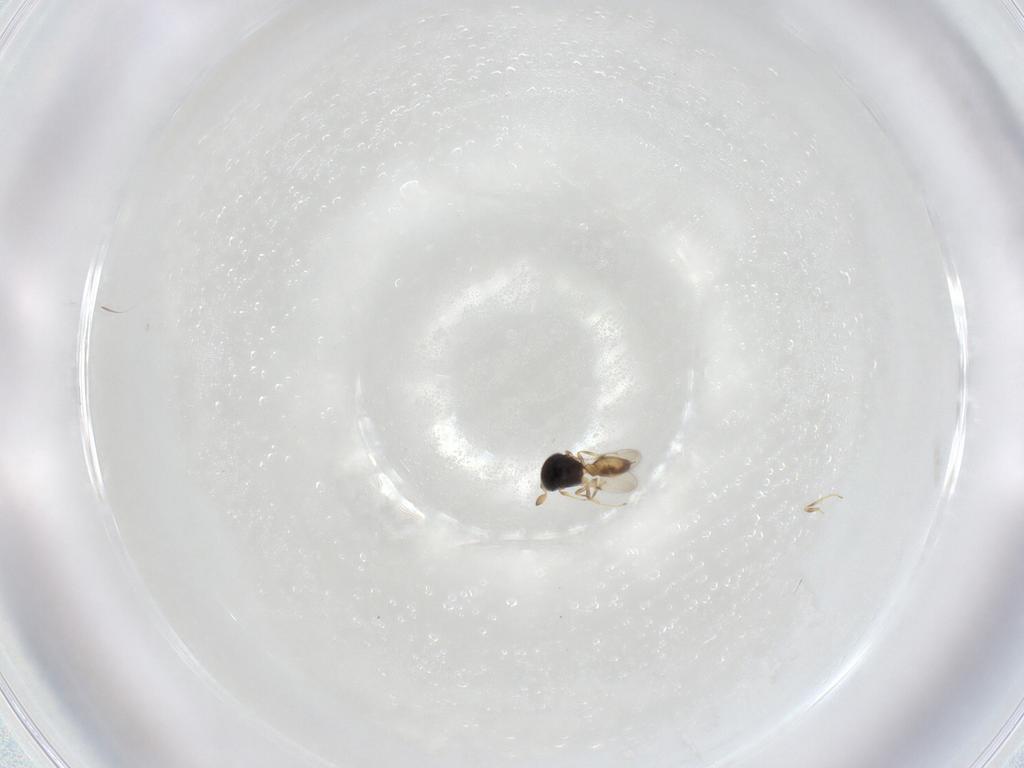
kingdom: Animalia
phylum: Arthropoda
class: Insecta
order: Hymenoptera
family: Scelionidae
